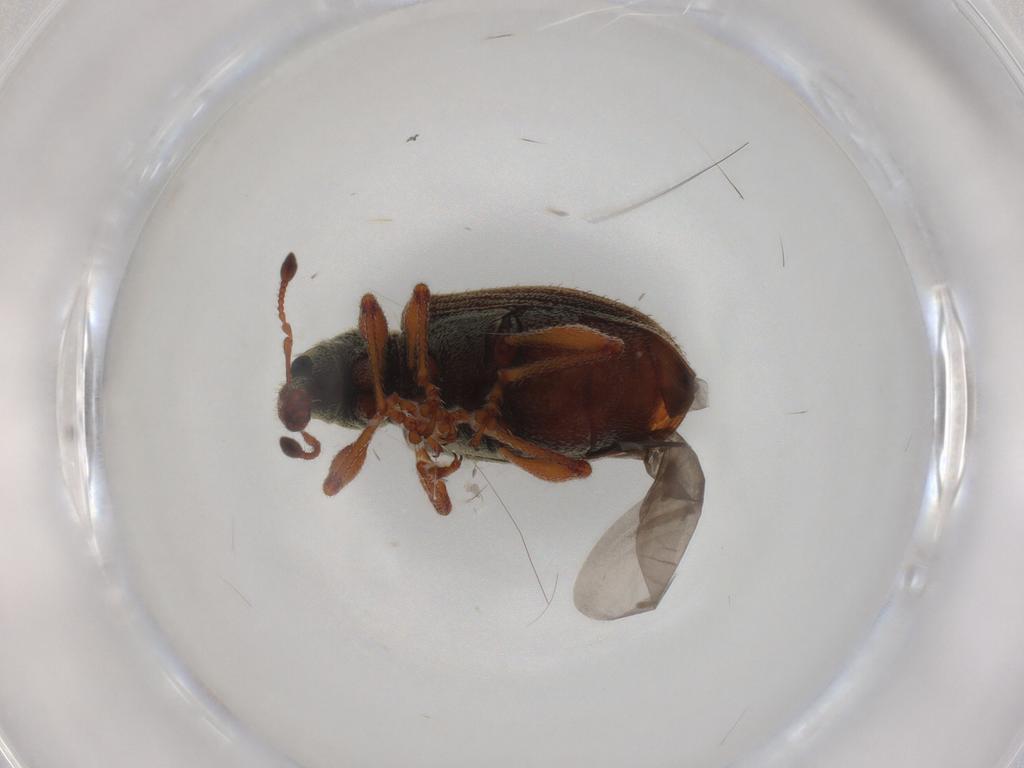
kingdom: Animalia
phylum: Arthropoda
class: Insecta
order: Coleoptera
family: Curculionidae
